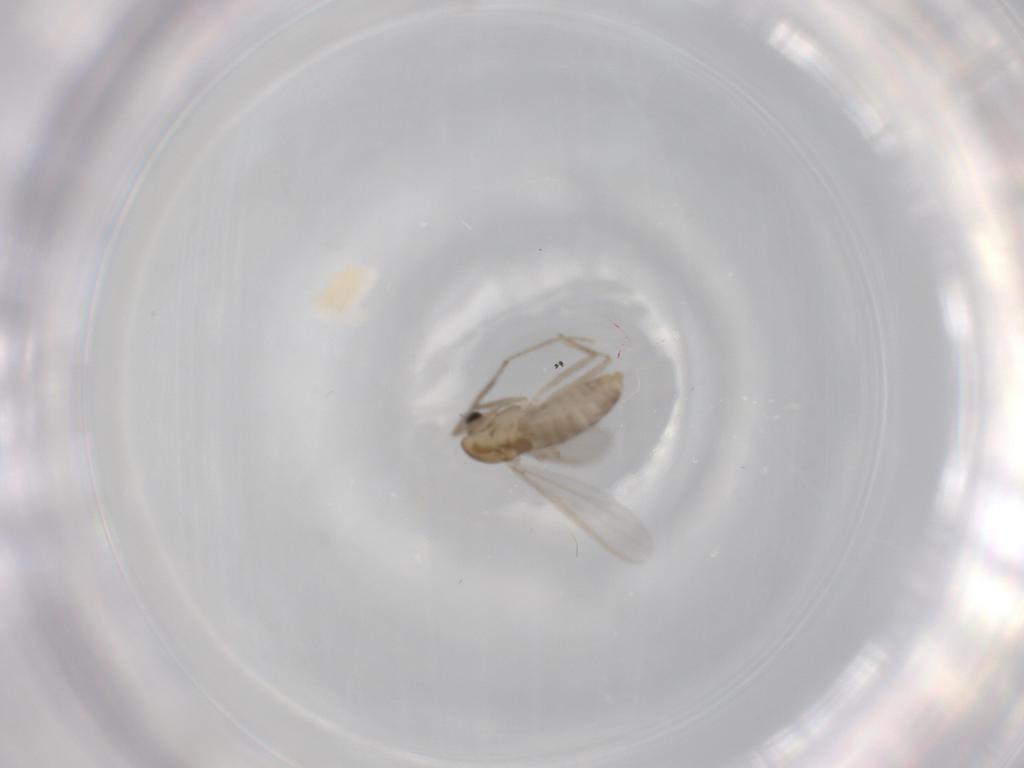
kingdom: Animalia
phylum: Arthropoda
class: Insecta
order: Diptera
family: Chironomidae
